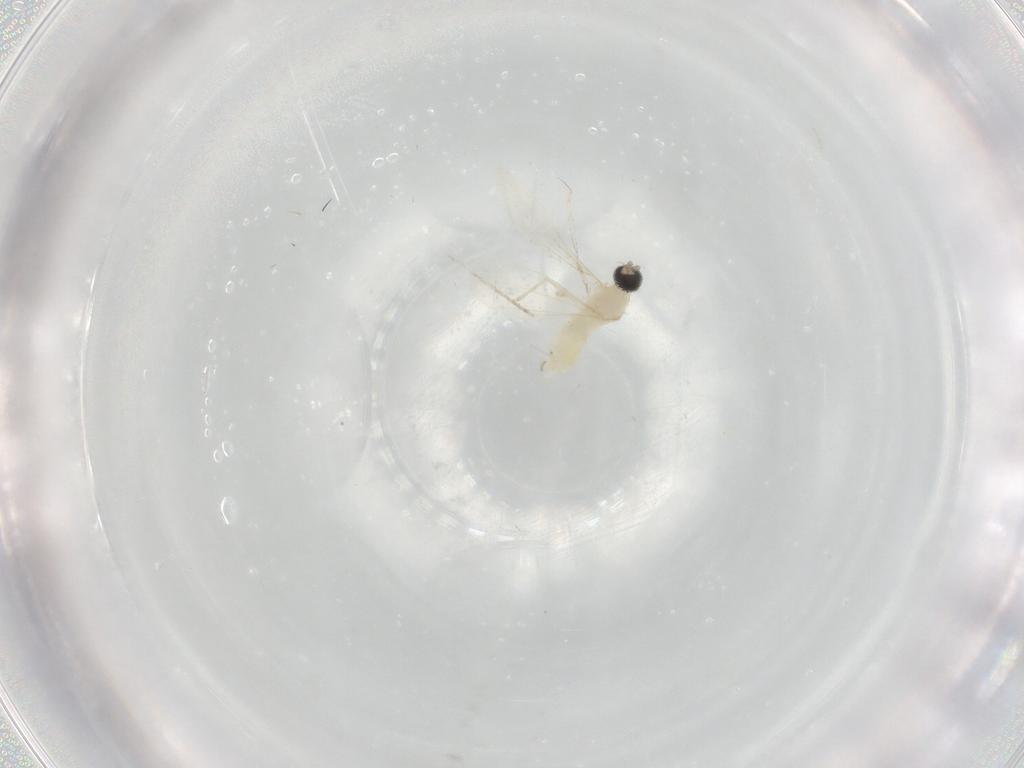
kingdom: Animalia
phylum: Arthropoda
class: Insecta
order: Diptera
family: Cecidomyiidae
